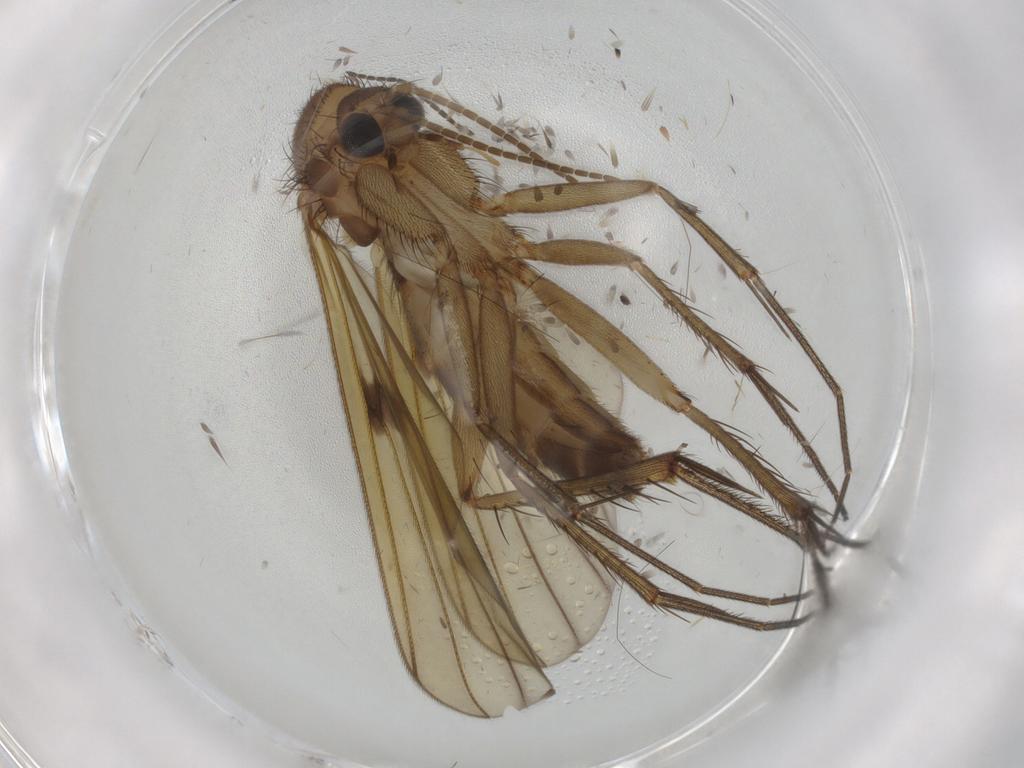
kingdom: Animalia
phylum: Arthropoda
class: Insecta
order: Diptera
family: Mycetophilidae
